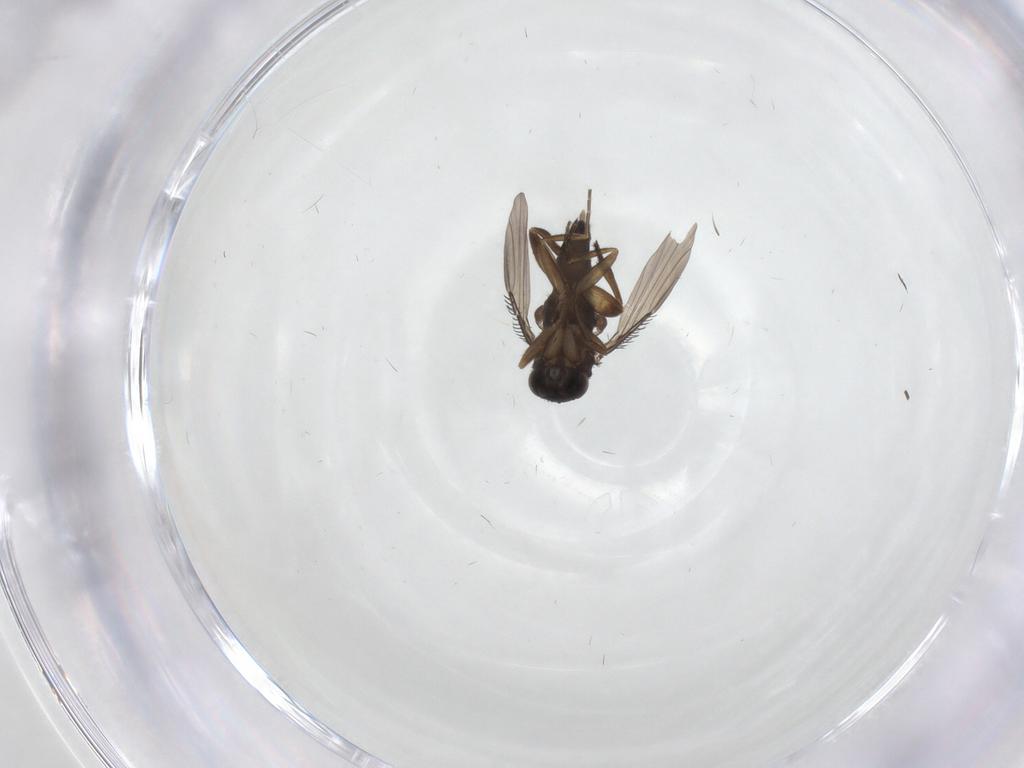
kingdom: Animalia
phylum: Arthropoda
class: Insecta
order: Diptera
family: Phoridae
